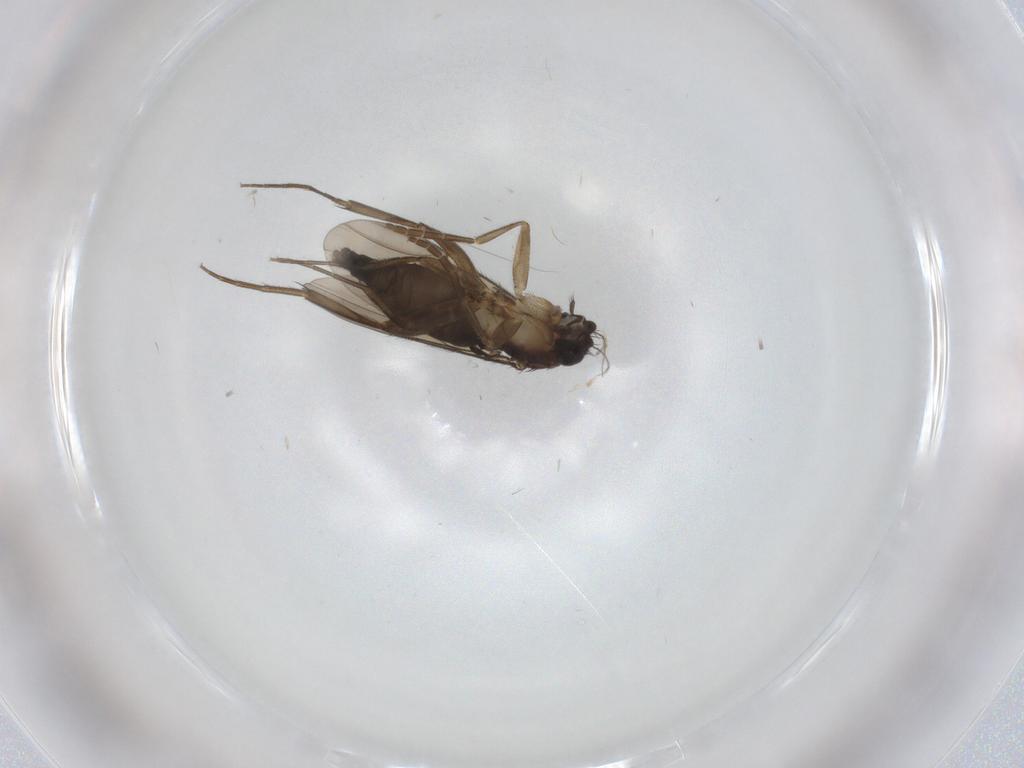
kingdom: Animalia
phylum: Arthropoda
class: Insecta
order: Diptera
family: Phoridae
